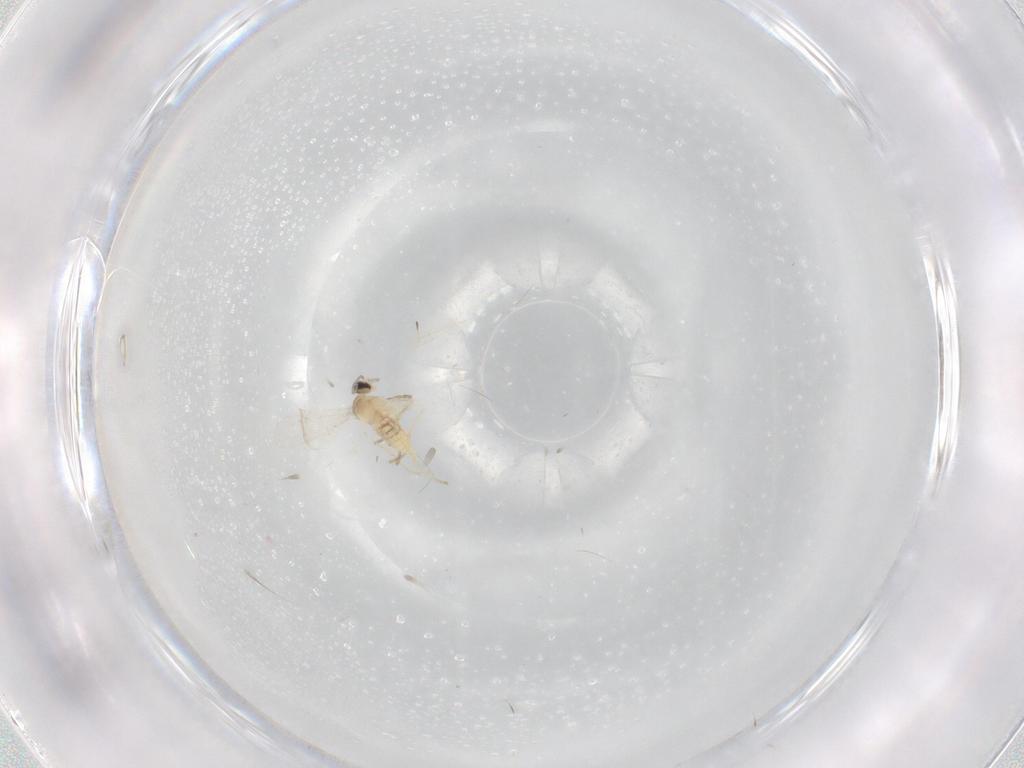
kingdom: Animalia
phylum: Arthropoda
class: Insecta
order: Diptera
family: Cecidomyiidae
